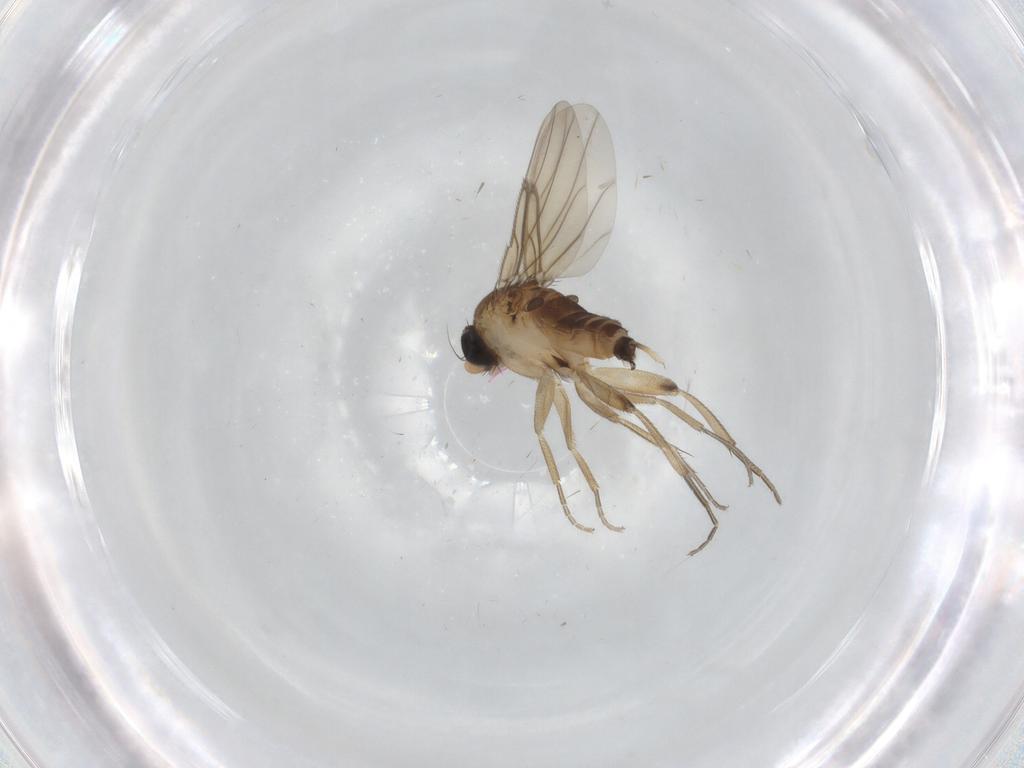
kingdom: Animalia
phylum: Arthropoda
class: Insecta
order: Diptera
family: Phoridae
